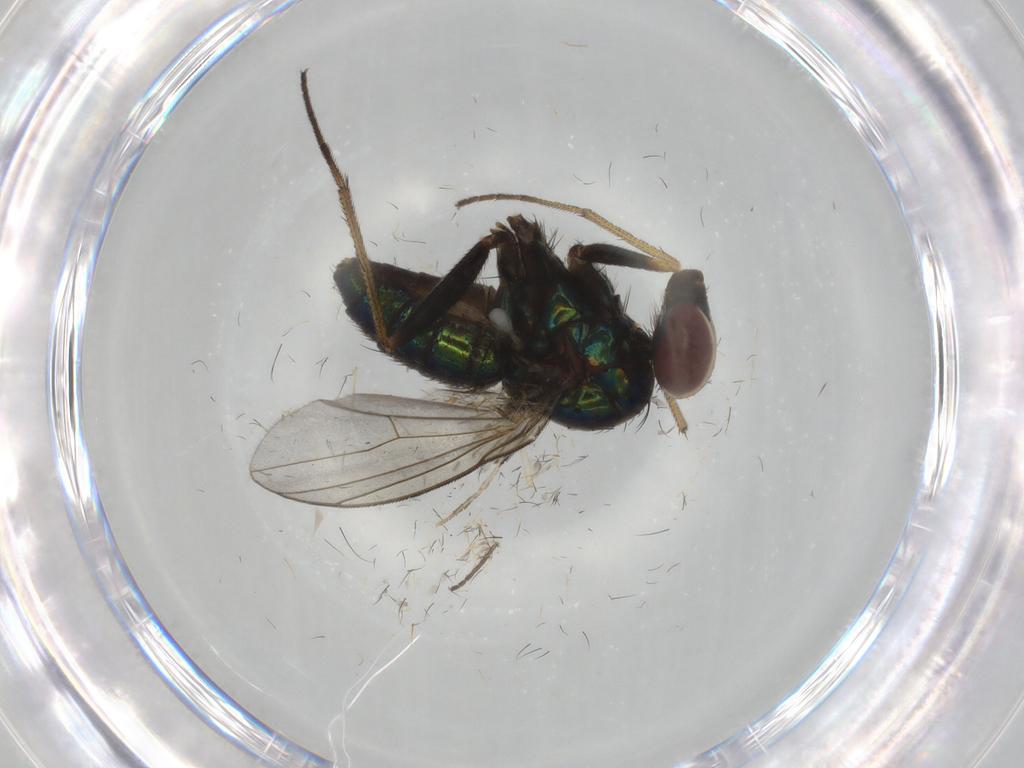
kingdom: Animalia
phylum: Arthropoda
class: Insecta
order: Diptera
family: Dolichopodidae
